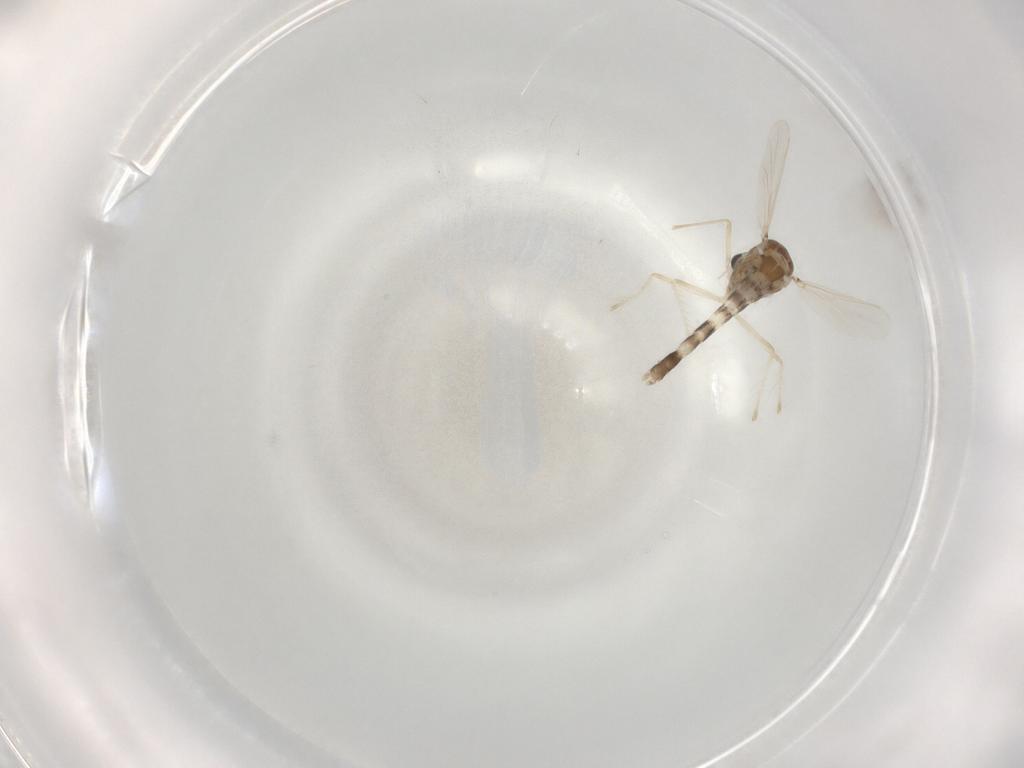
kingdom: Animalia
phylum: Arthropoda
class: Insecta
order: Diptera
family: Chironomidae
